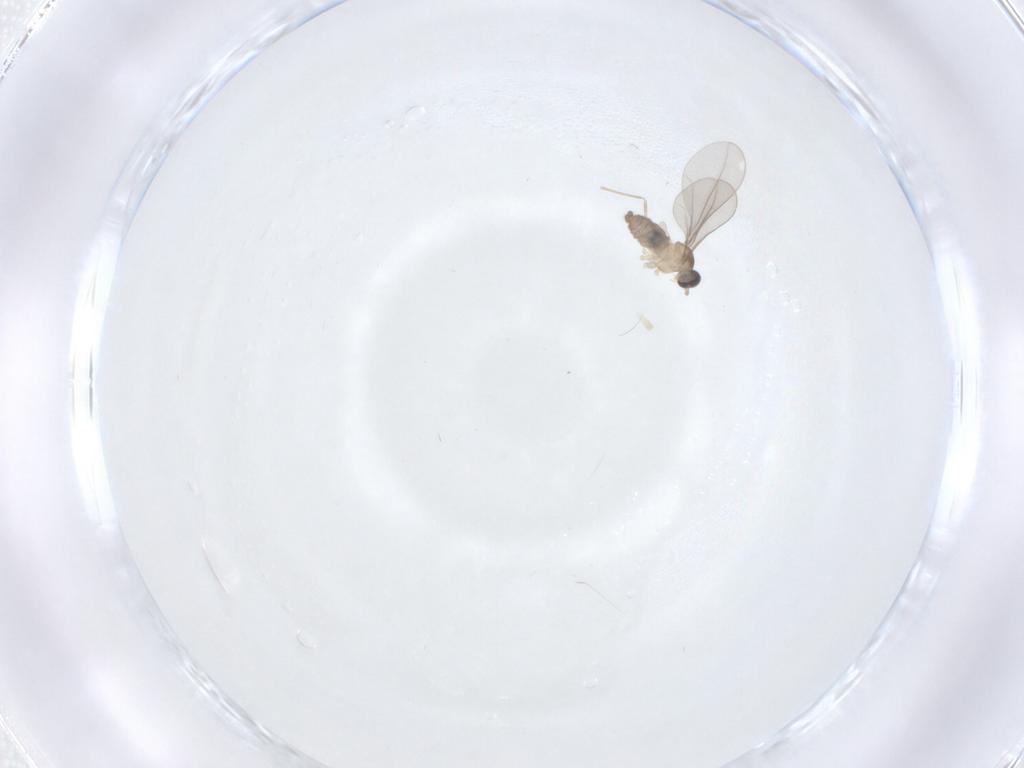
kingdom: Animalia
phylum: Arthropoda
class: Insecta
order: Diptera
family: Cecidomyiidae
